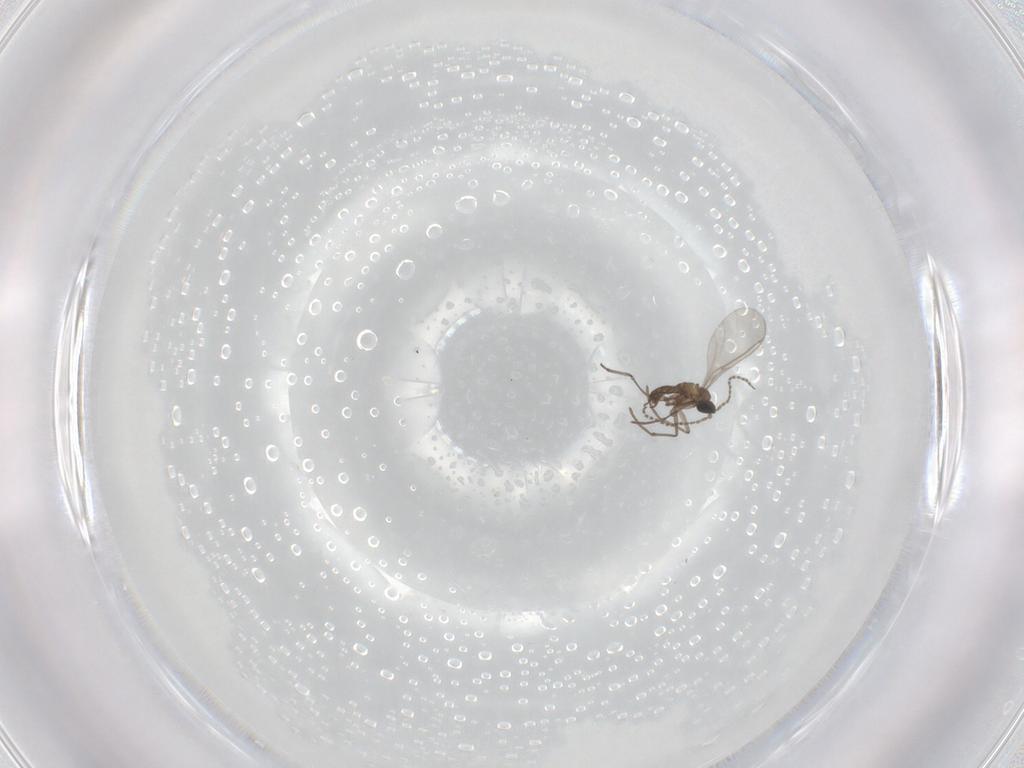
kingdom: Animalia
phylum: Arthropoda
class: Insecta
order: Diptera
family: Sciaridae
